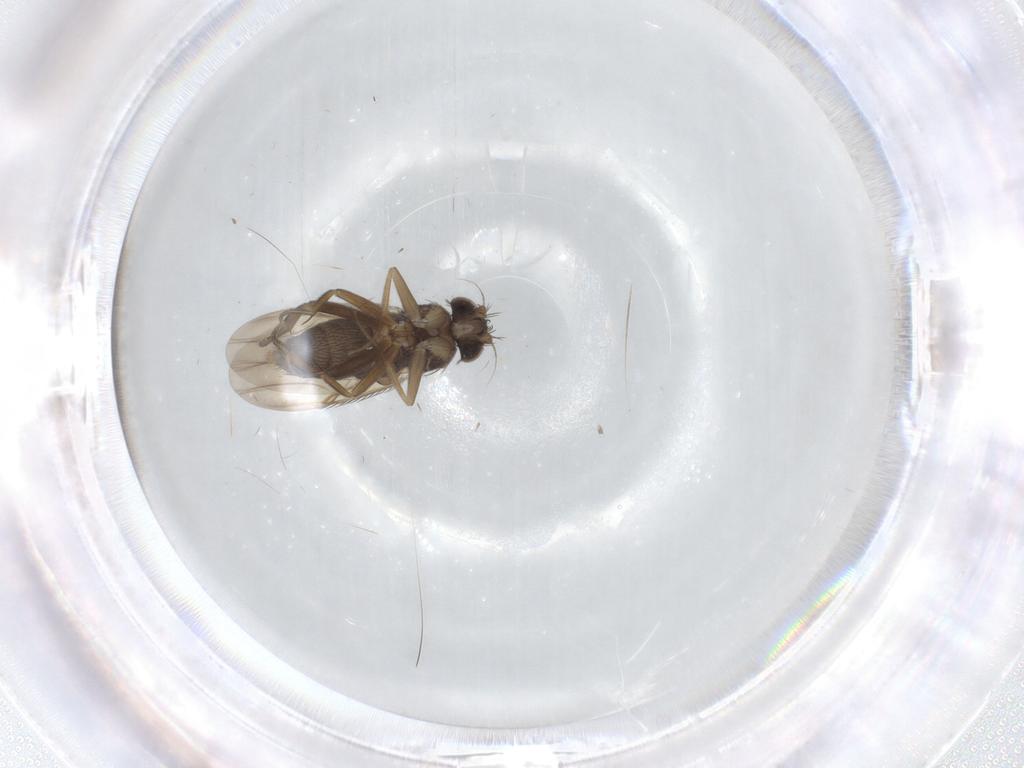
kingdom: Animalia
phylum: Arthropoda
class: Insecta
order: Diptera
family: Phoridae
